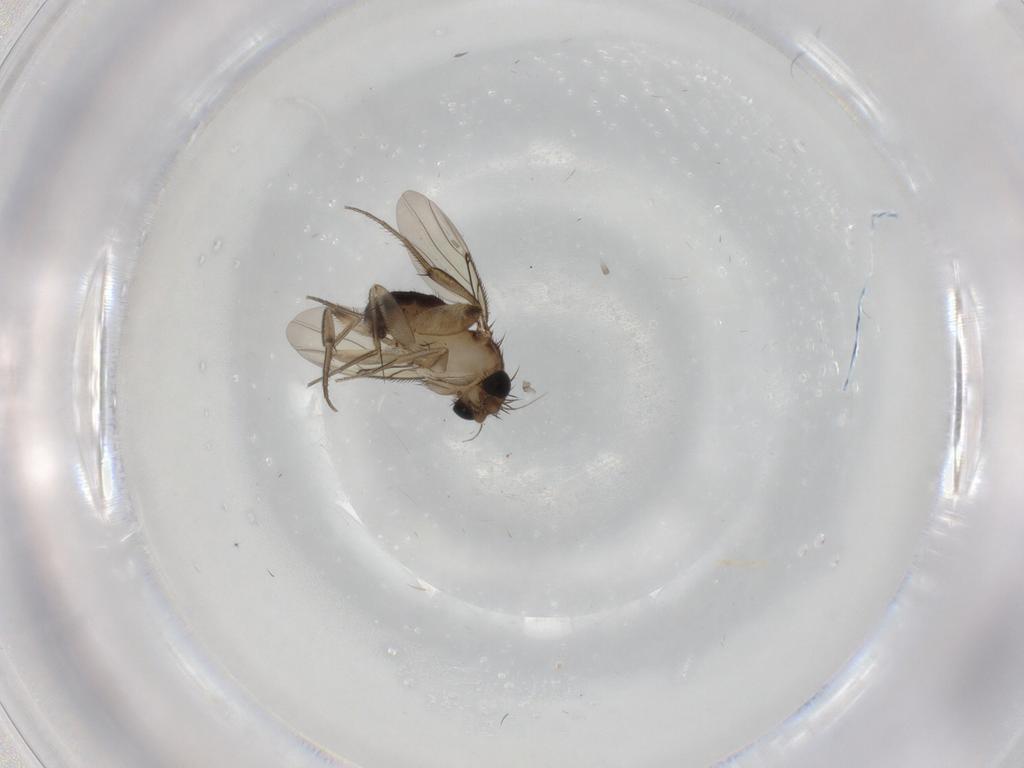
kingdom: Animalia
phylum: Arthropoda
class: Insecta
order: Diptera
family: Phoridae
